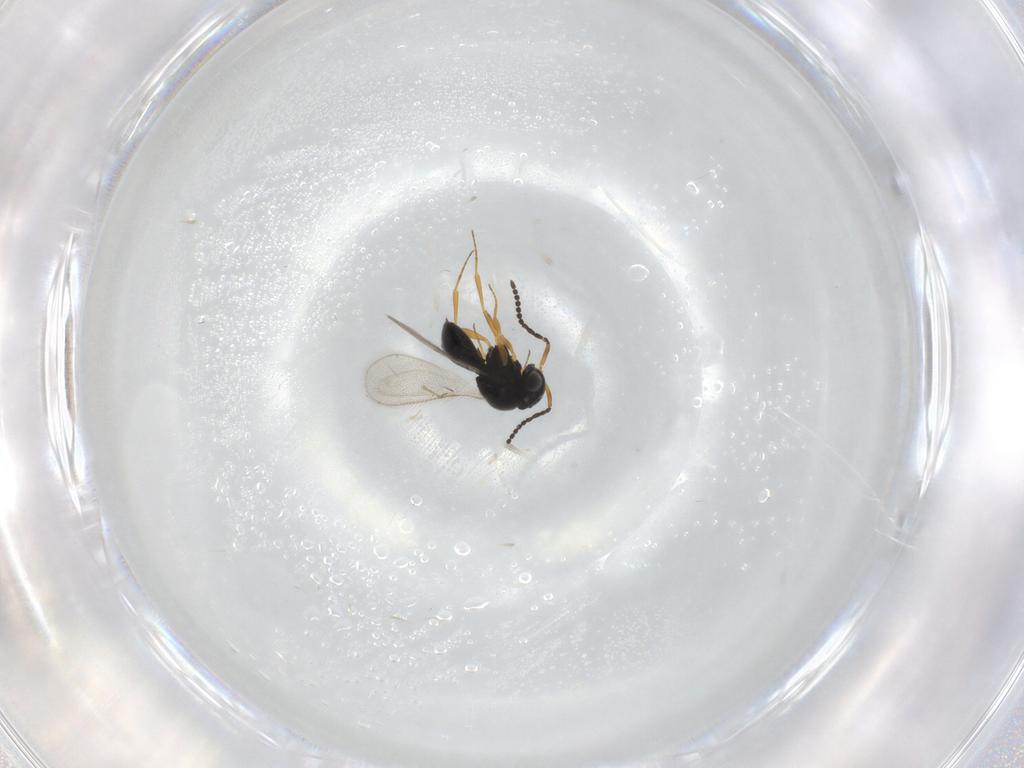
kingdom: Animalia
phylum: Arthropoda
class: Insecta
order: Hymenoptera
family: Scelionidae
